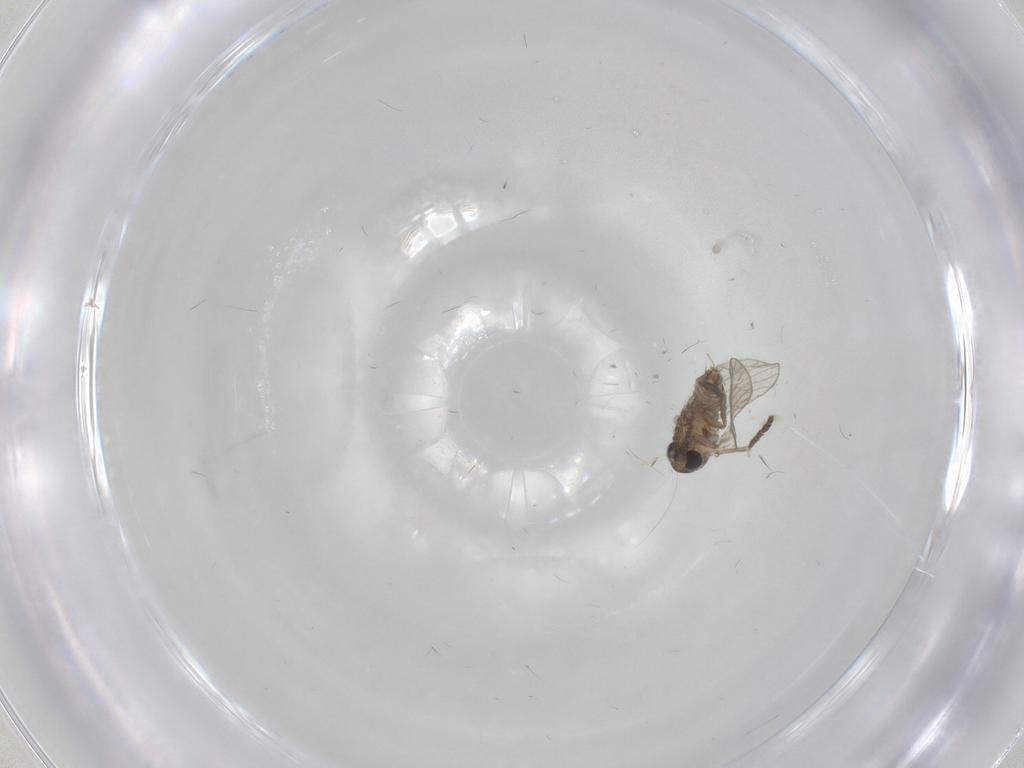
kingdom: Animalia
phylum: Arthropoda
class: Insecta
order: Diptera
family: Psychodidae
